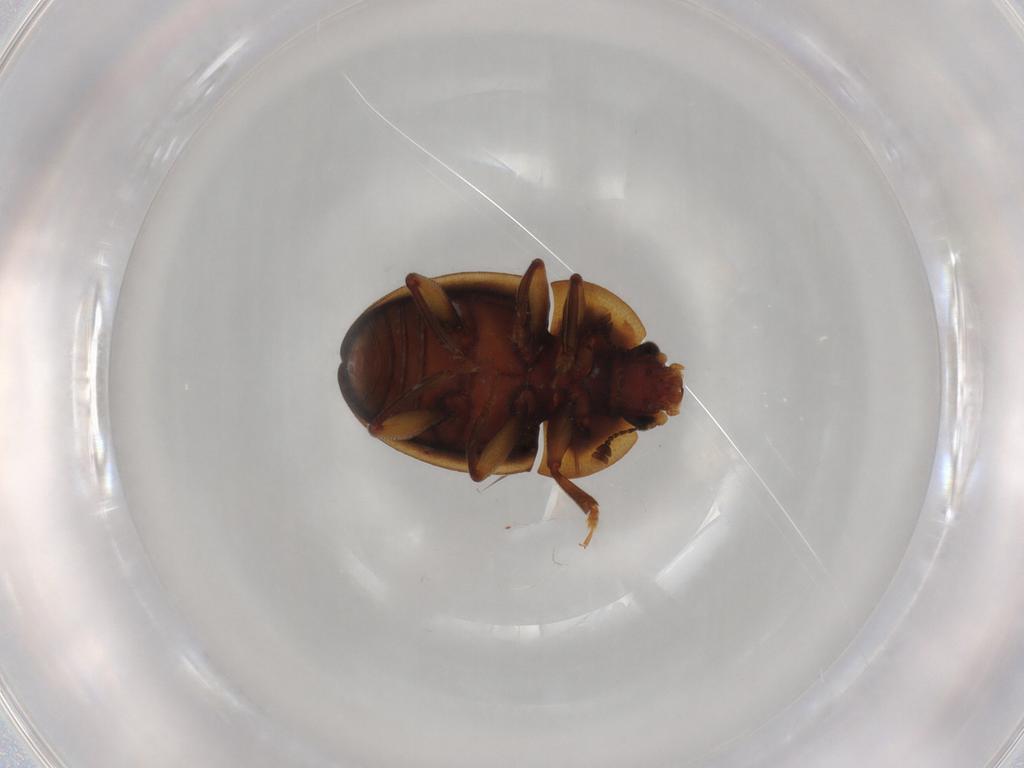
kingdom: Animalia
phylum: Arthropoda
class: Insecta
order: Coleoptera
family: Nitidulidae
